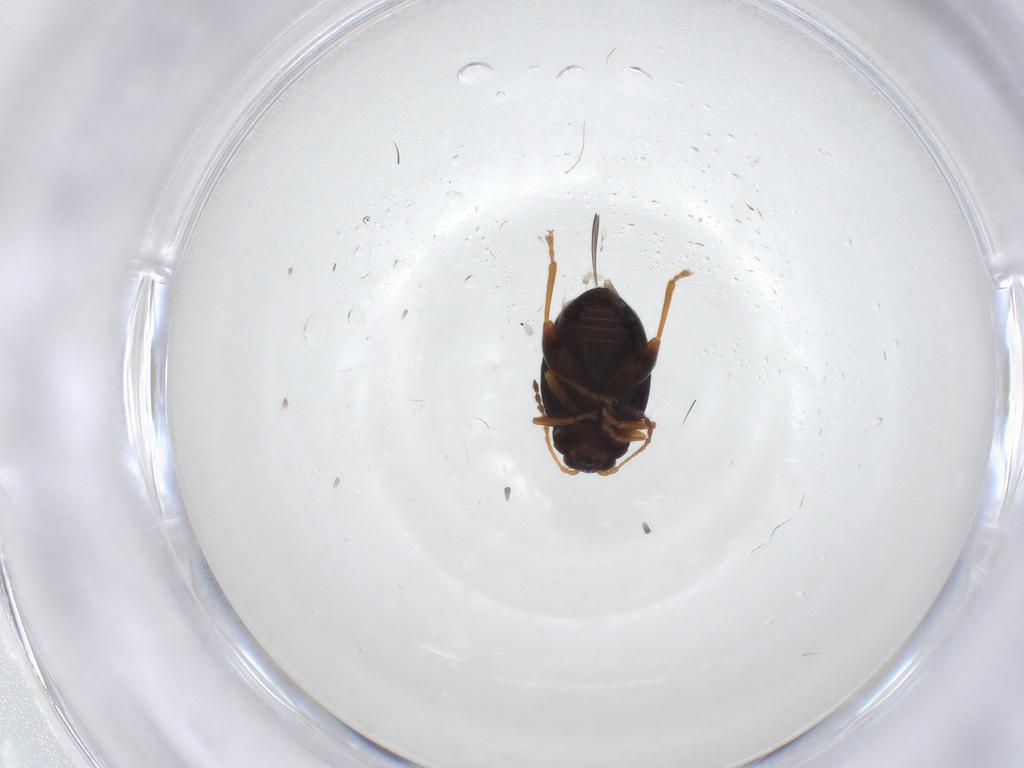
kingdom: Animalia
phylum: Arthropoda
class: Insecta
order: Coleoptera
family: Chrysomelidae
